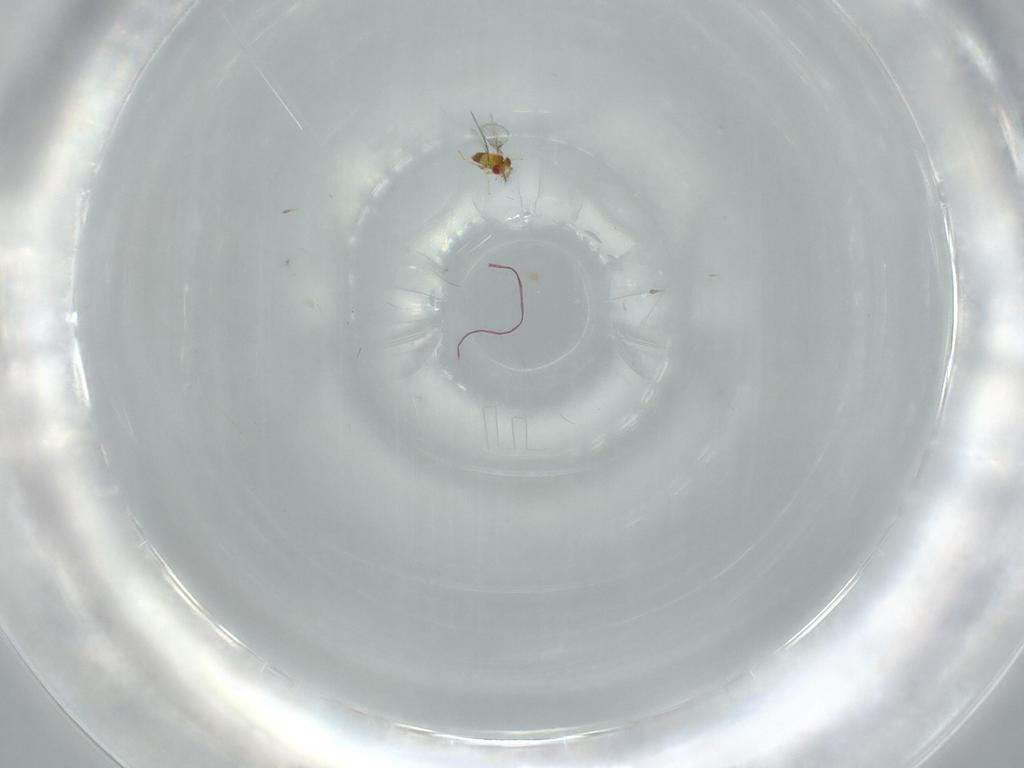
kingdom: Animalia
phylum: Arthropoda
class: Insecta
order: Hymenoptera
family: Trichogrammatidae
